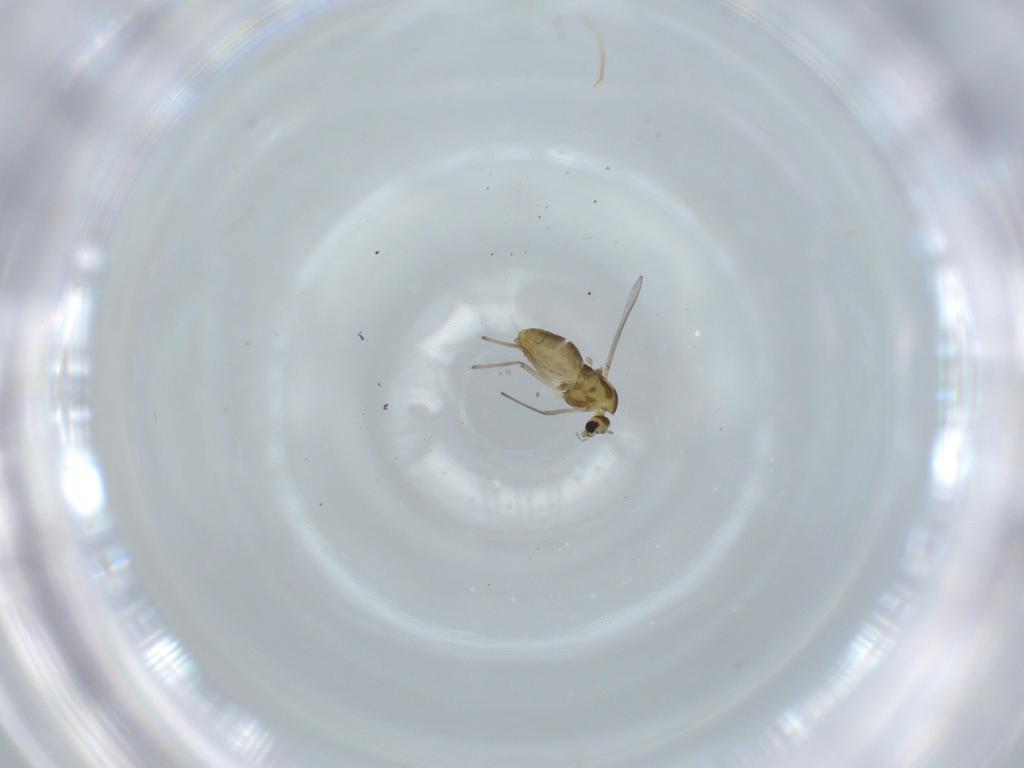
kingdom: Animalia
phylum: Arthropoda
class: Insecta
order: Diptera
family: Chironomidae
